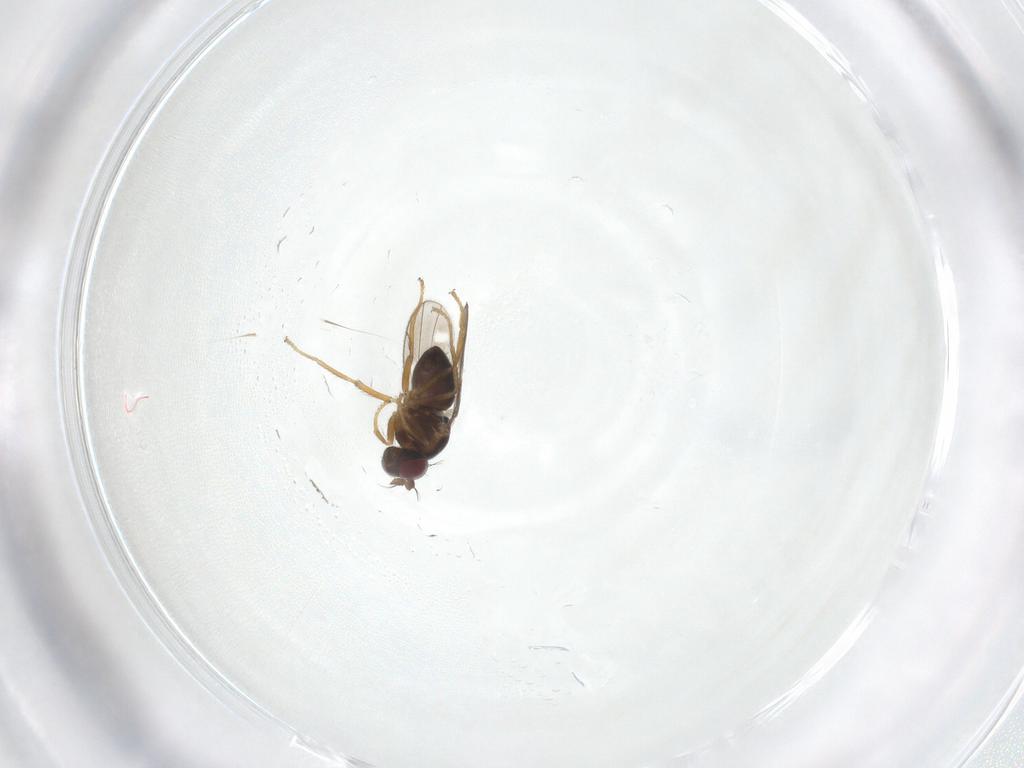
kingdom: Animalia
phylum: Arthropoda
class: Insecta
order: Diptera
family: Ephydridae
